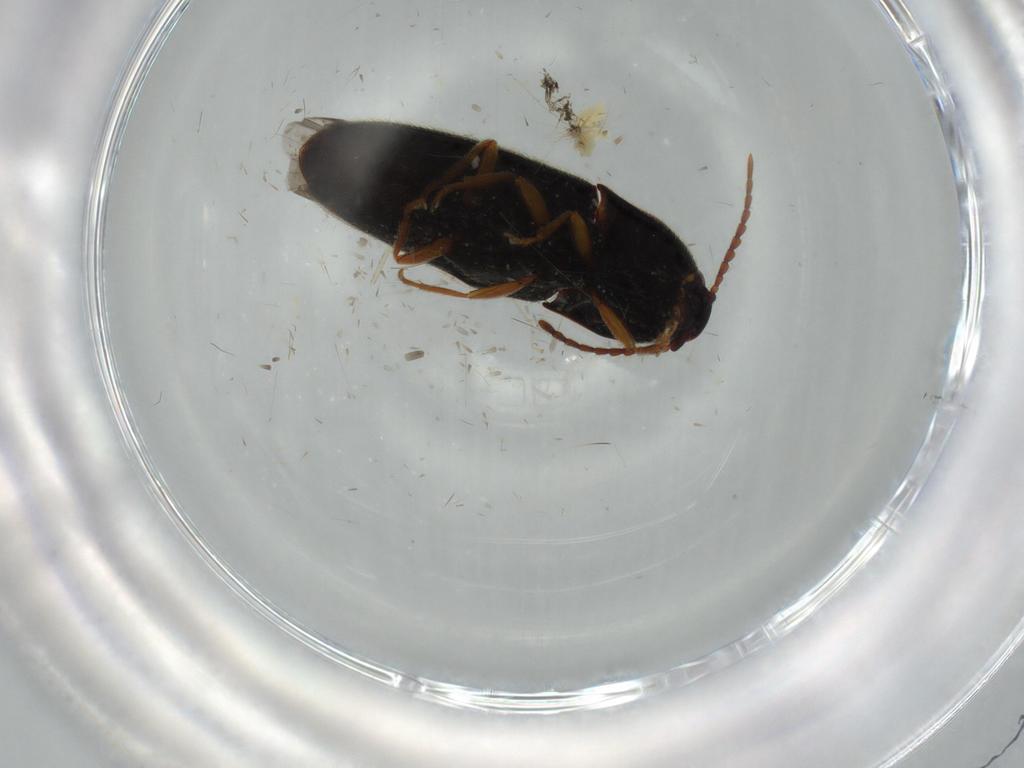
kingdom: Animalia
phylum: Arthropoda
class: Insecta
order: Coleoptera
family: Oedemeridae
